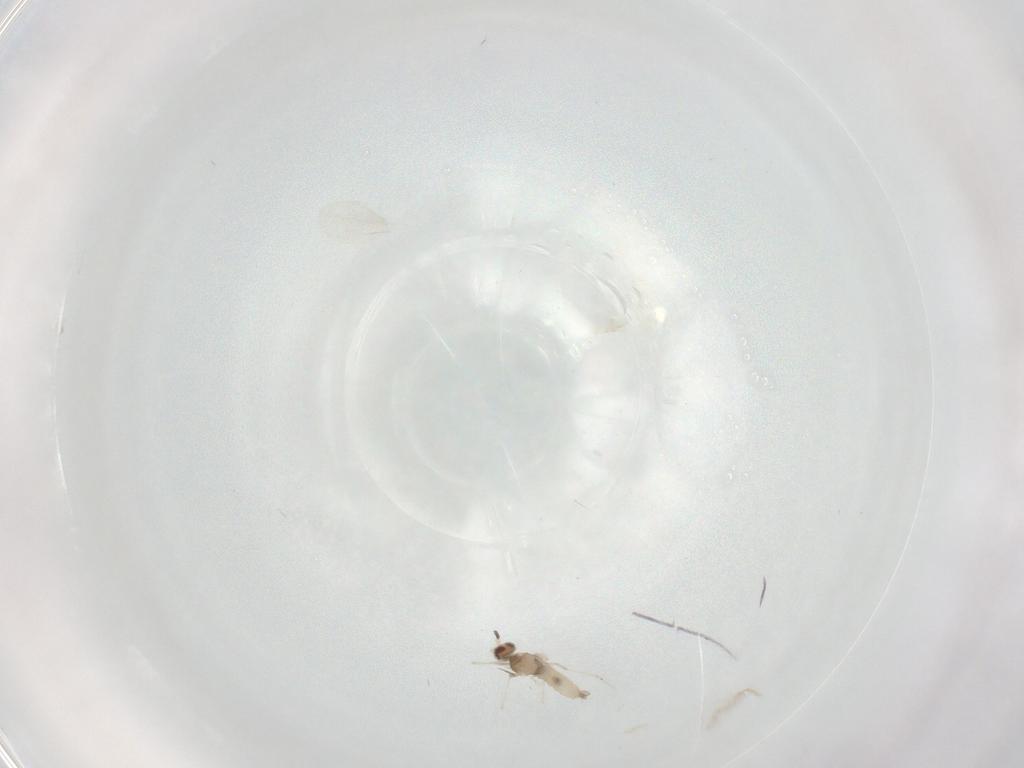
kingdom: Animalia
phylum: Arthropoda
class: Insecta
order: Diptera
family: Cecidomyiidae
